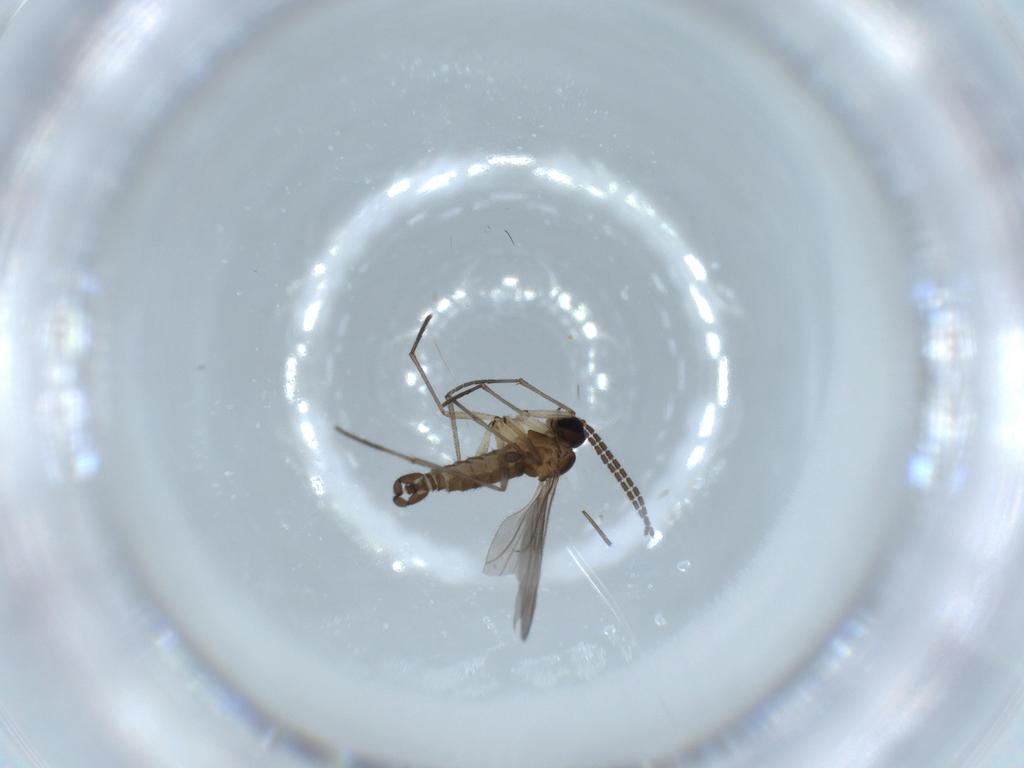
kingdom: Animalia
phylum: Arthropoda
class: Insecta
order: Diptera
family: Sciaridae
